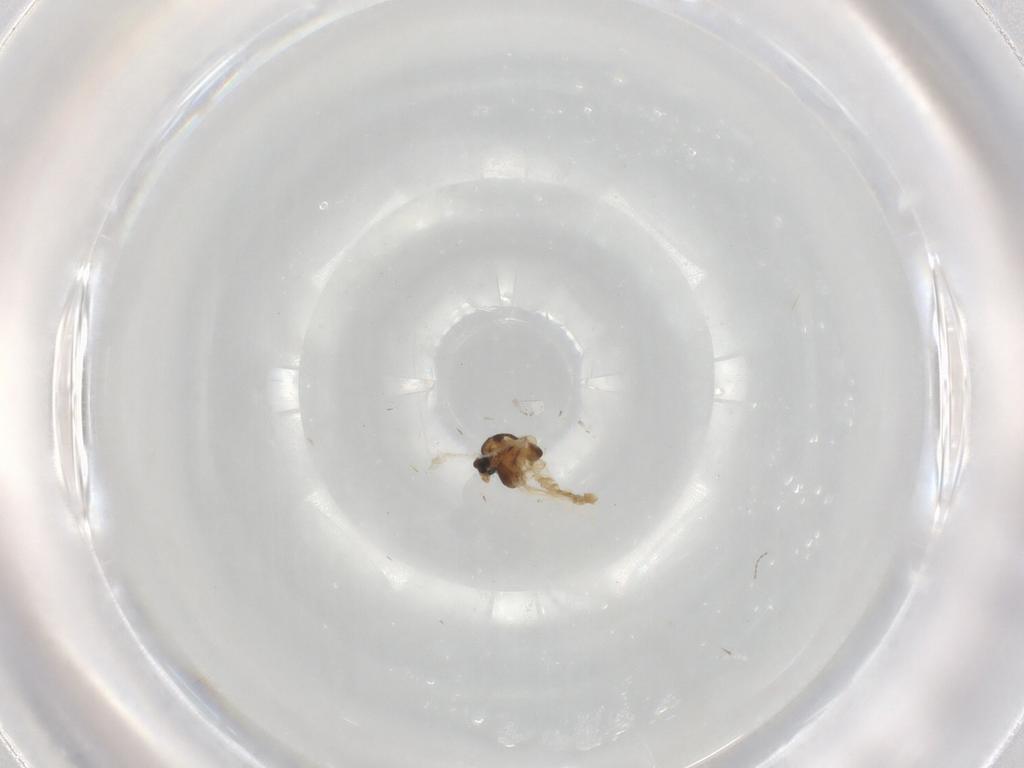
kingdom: Animalia
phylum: Arthropoda
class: Insecta
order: Diptera
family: Chironomidae
